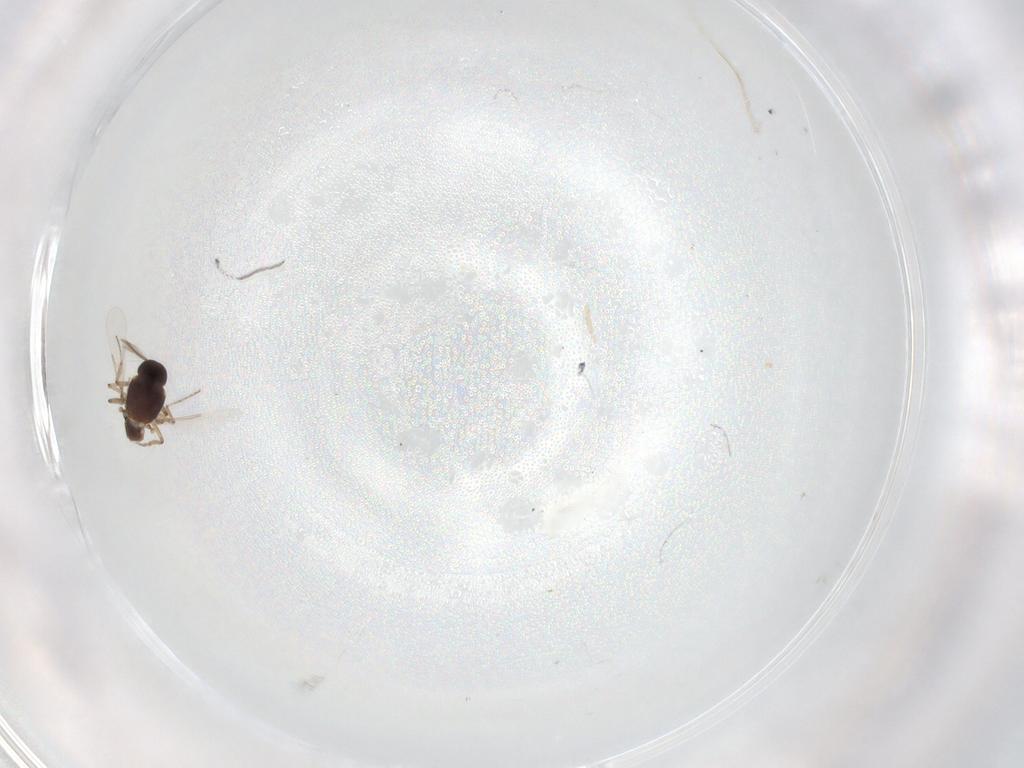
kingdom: Animalia
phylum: Arthropoda
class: Insecta
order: Diptera
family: Ceratopogonidae
